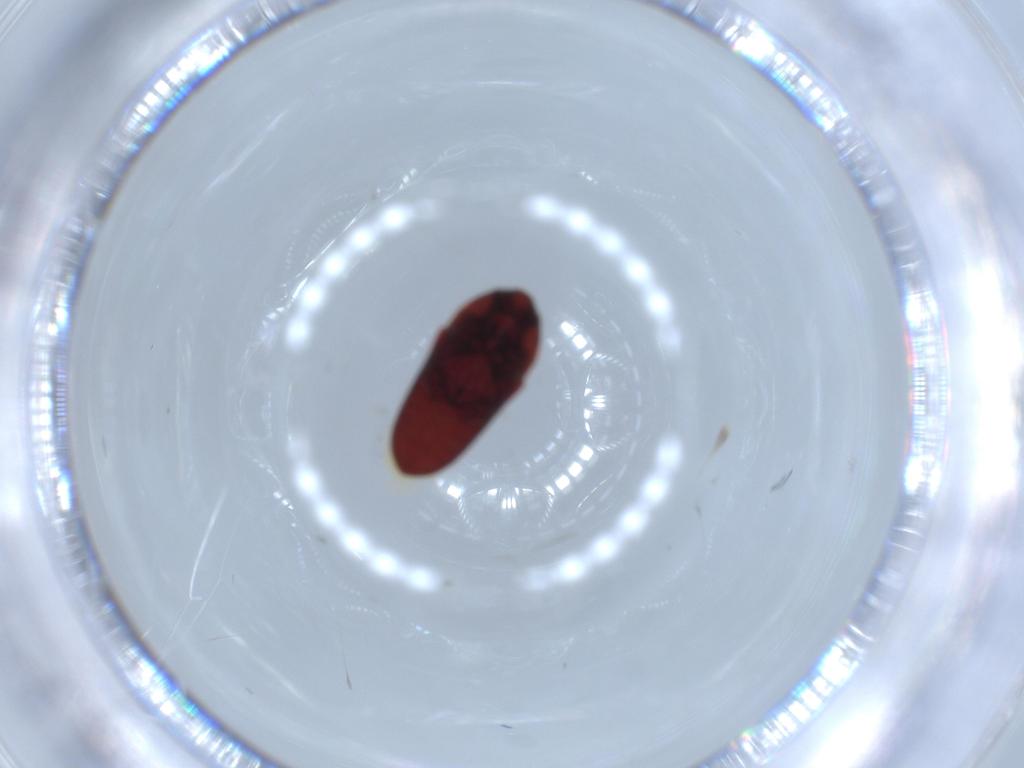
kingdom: Animalia
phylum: Arthropoda
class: Insecta
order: Coleoptera
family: Throscidae
